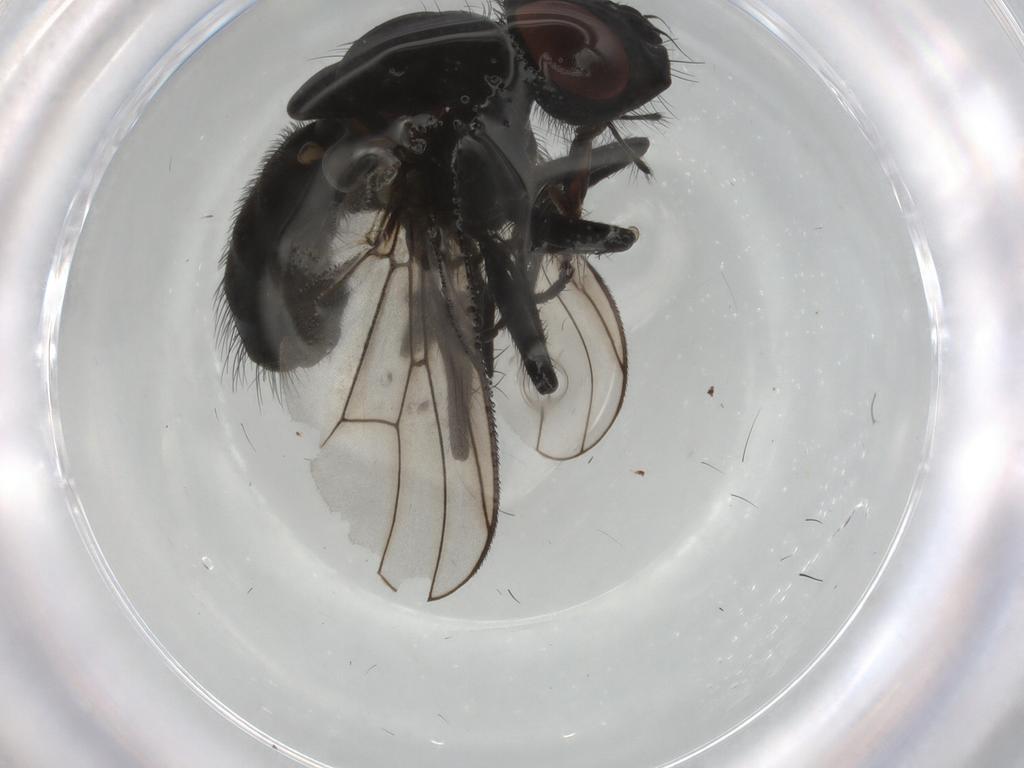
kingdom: Animalia
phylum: Arthropoda
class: Insecta
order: Diptera
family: Muscidae
